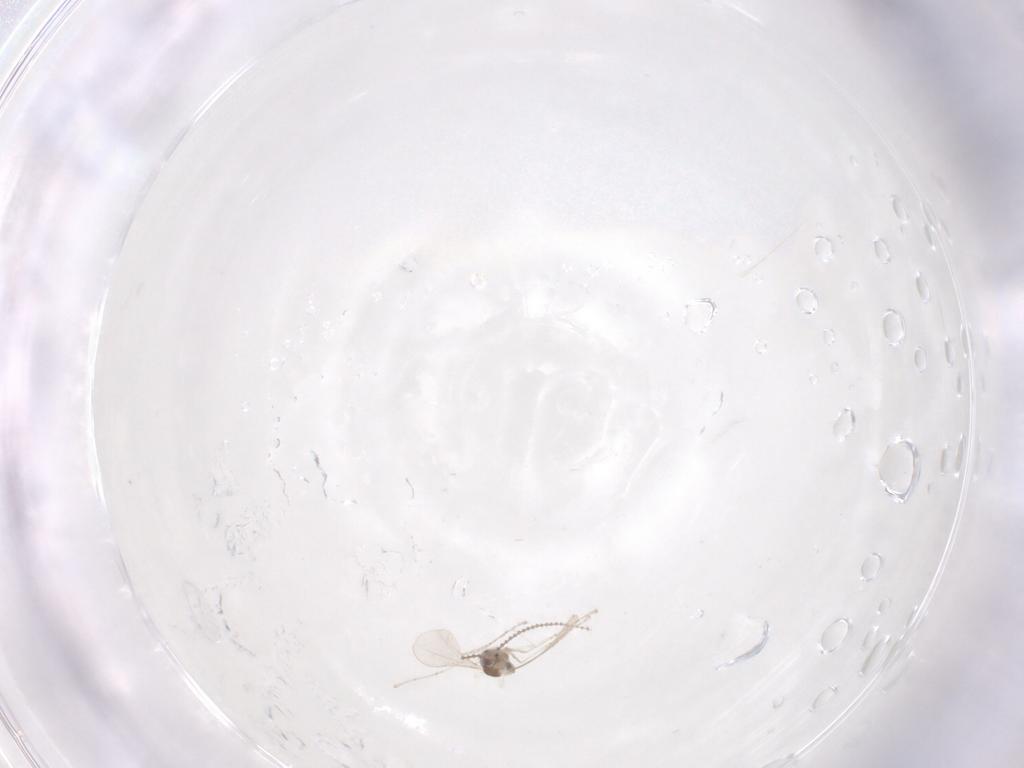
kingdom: Animalia
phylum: Arthropoda
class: Insecta
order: Diptera
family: Cecidomyiidae
